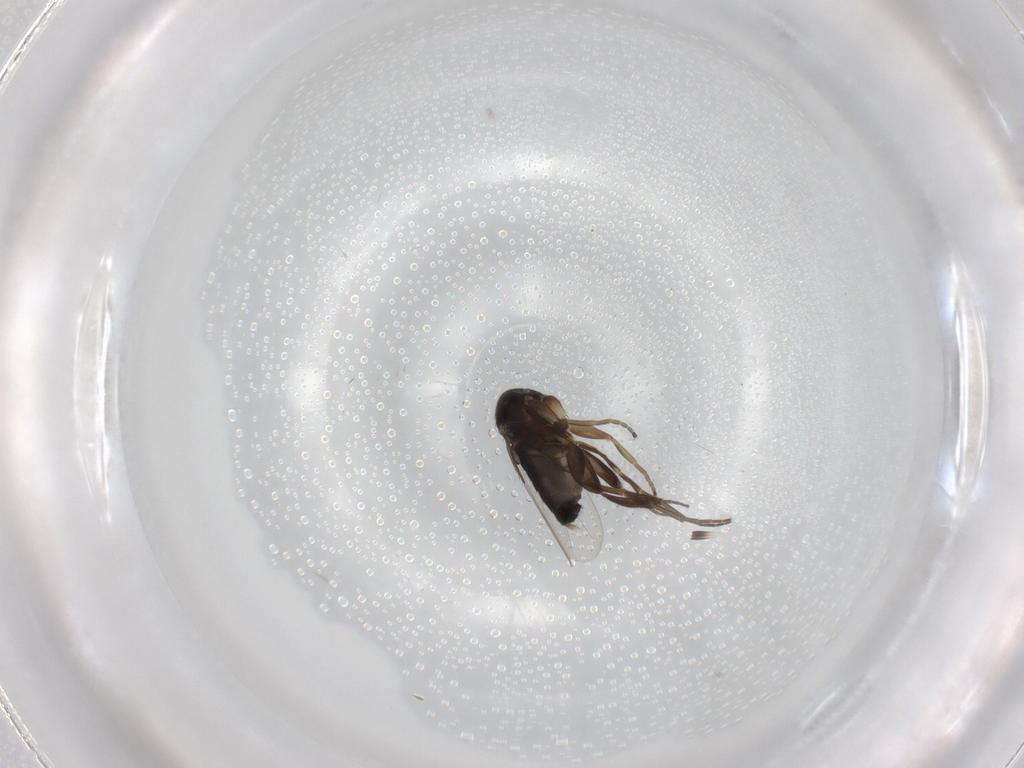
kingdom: Animalia
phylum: Arthropoda
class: Insecta
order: Diptera
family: Phoridae
